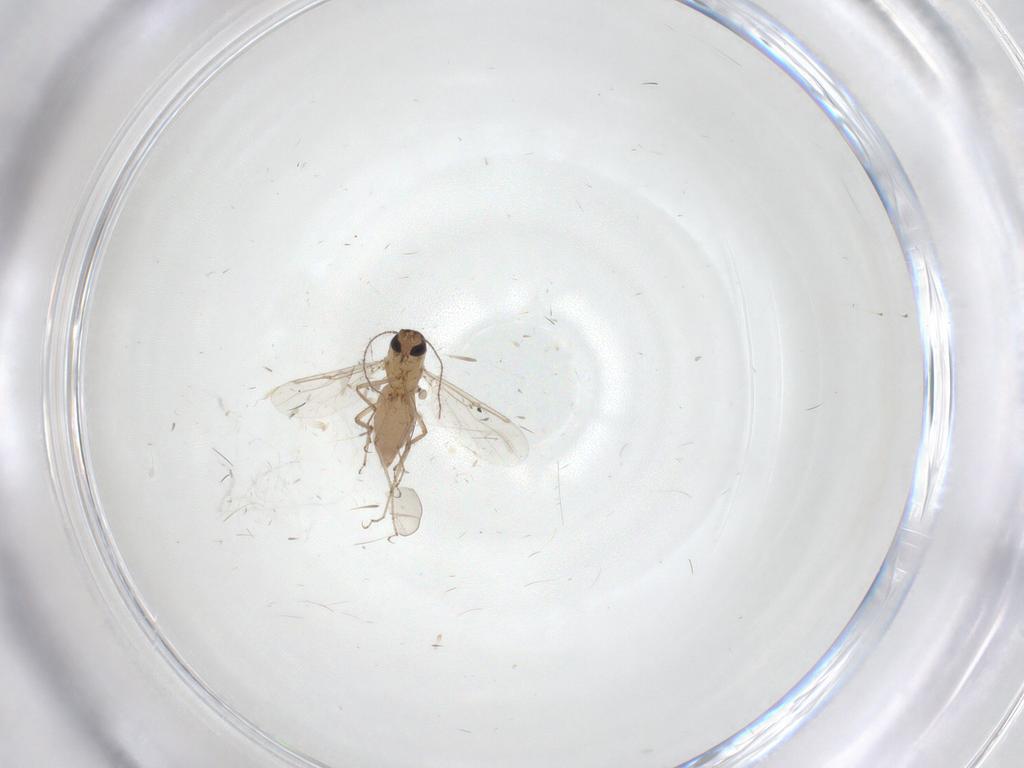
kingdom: Animalia
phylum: Arthropoda
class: Insecta
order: Diptera
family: Ceratopogonidae
